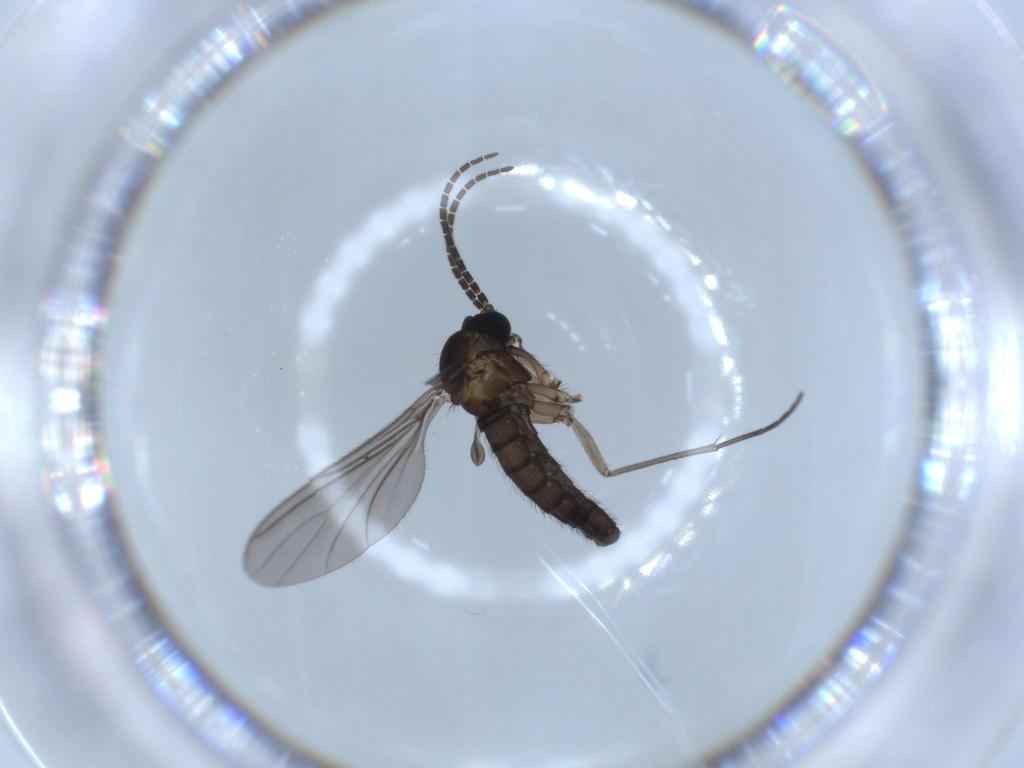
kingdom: Animalia
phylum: Arthropoda
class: Insecta
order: Diptera
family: Sciaridae
